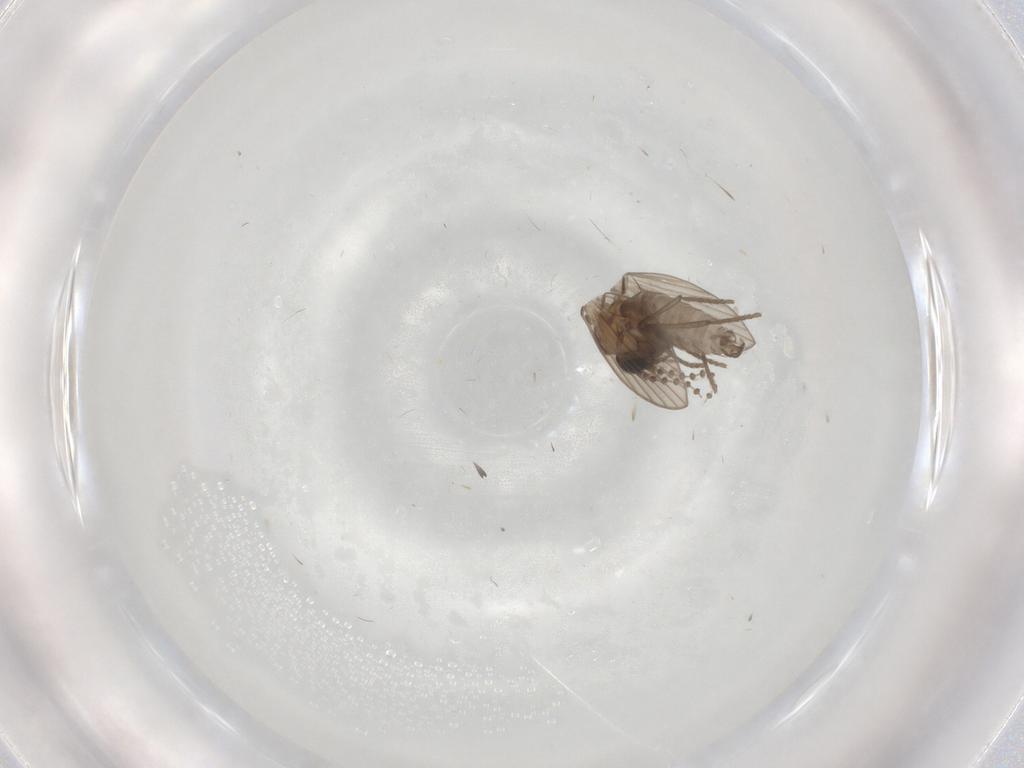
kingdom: Animalia
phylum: Arthropoda
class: Insecta
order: Diptera
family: Psychodidae
